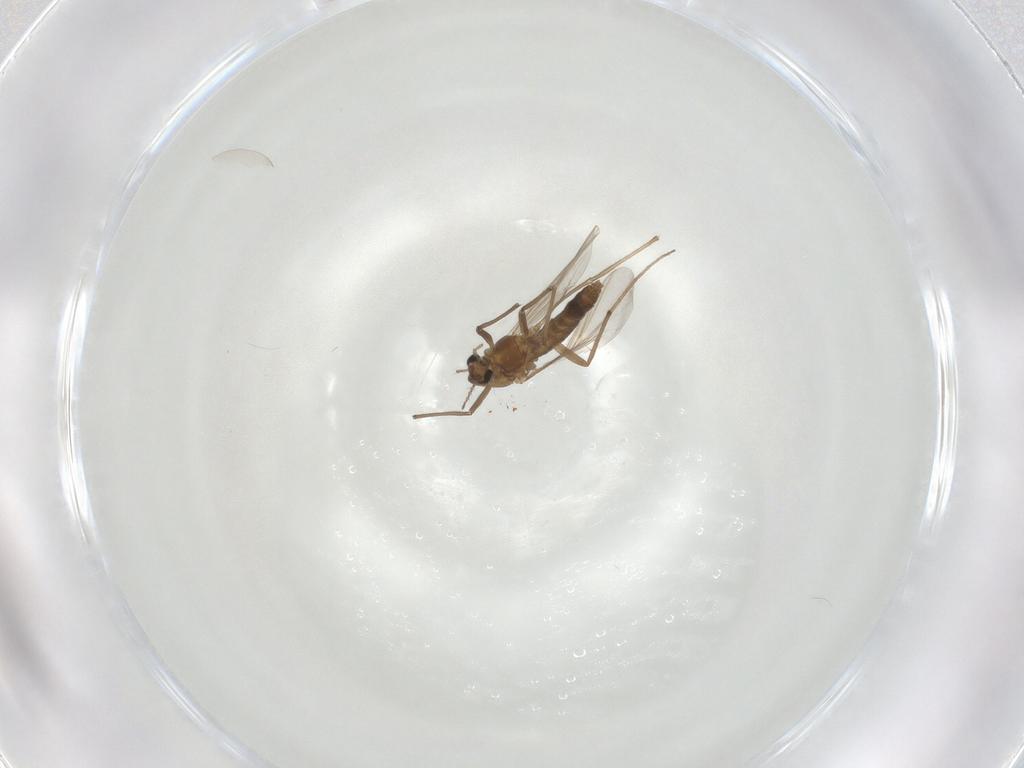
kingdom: Animalia
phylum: Arthropoda
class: Insecta
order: Diptera
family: Chironomidae
